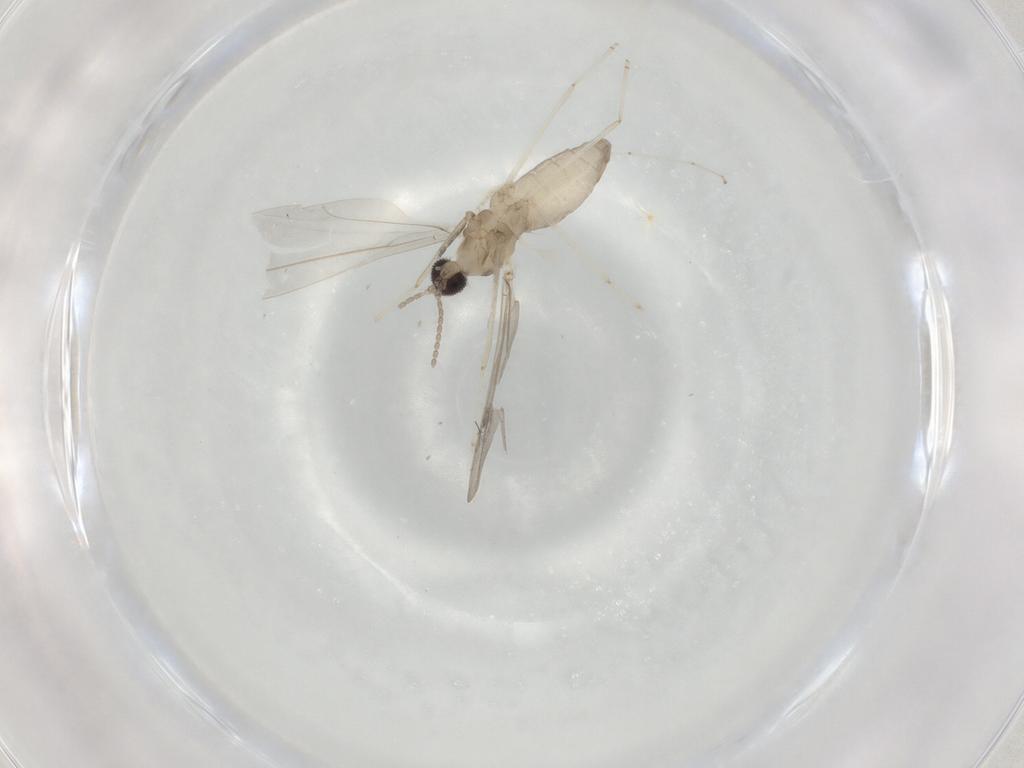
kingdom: Animalia
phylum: Arthropoda
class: Insecta
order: Diptera
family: Cecidomyiidae
